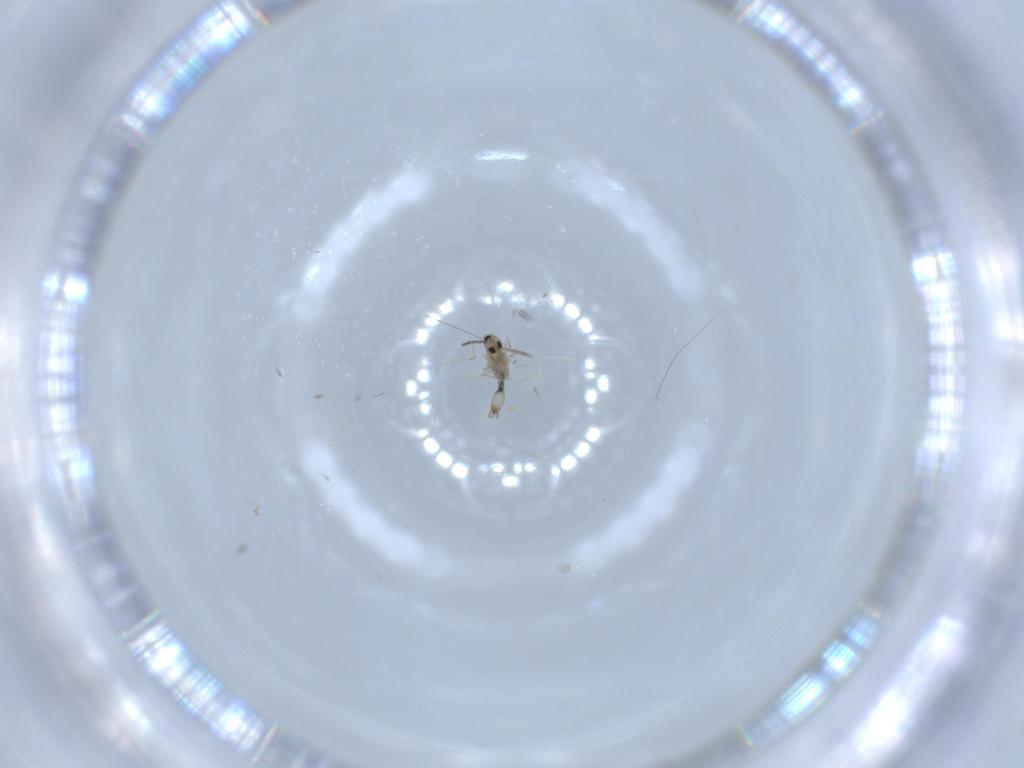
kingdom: Animalia
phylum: Arthropoda
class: Insecta
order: Diptera
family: Cecidomyiidae
